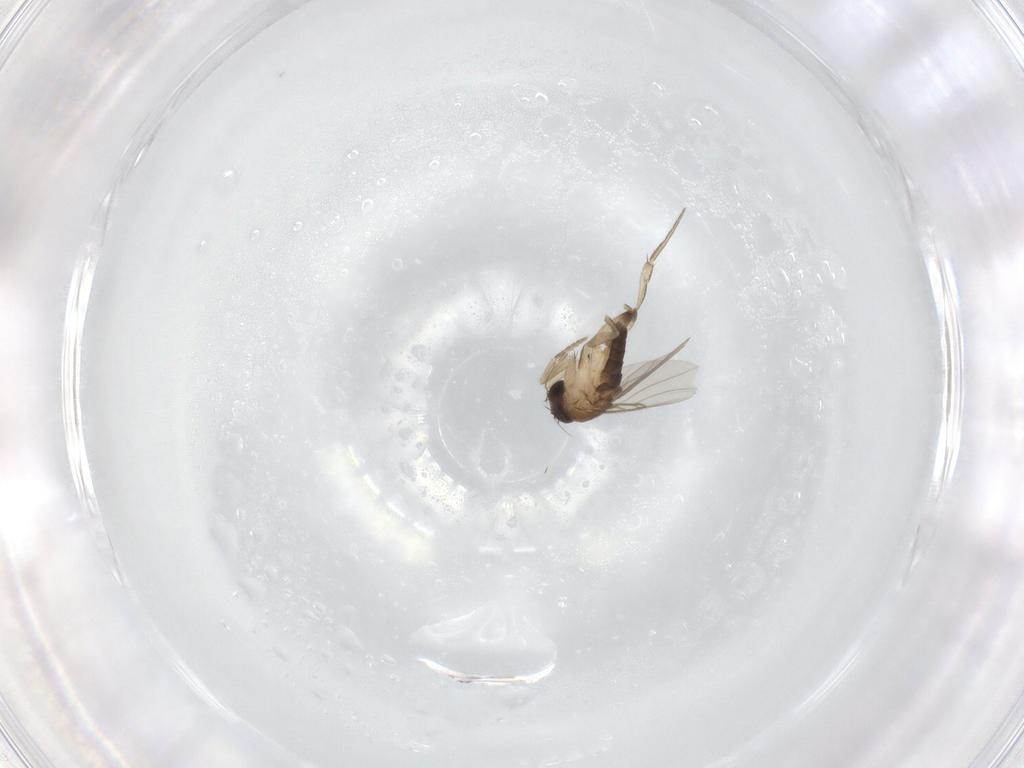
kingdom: Animalia
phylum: Arthropoda
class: Insecta
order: Diptera
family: Phoridae
